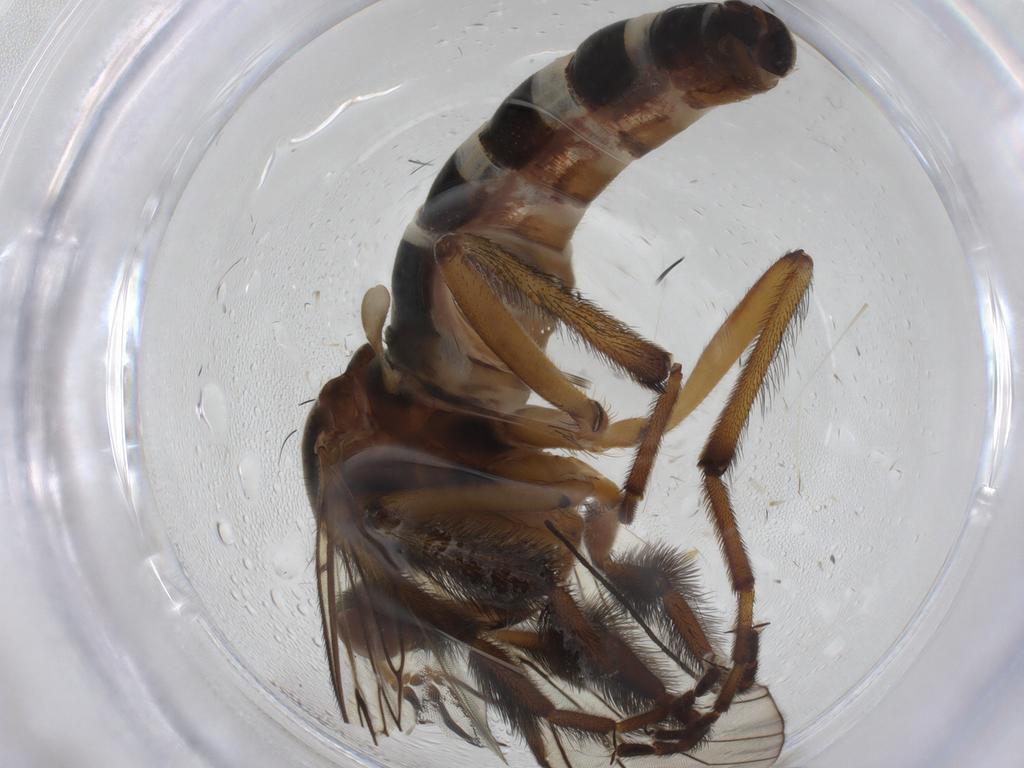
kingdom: Animalia
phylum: Arthropoda
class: Insecta
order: Diptera
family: Empididae
